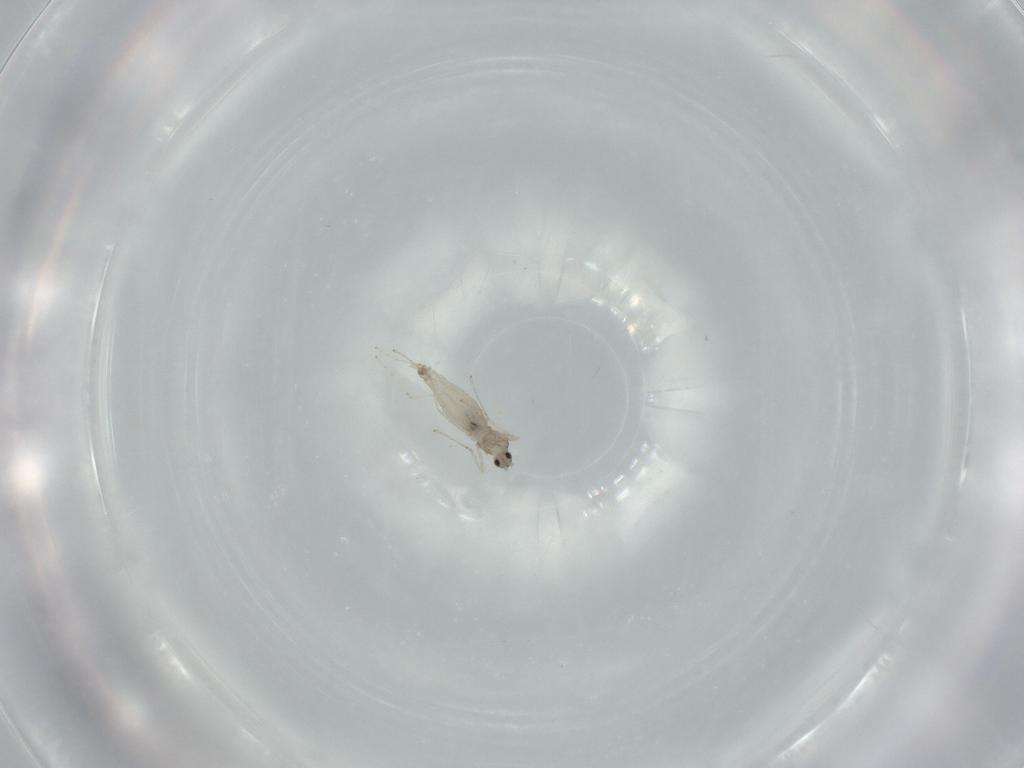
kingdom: Animalia
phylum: Arthropoda
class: Insecta
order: Diptera
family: Cecidomyiidae
